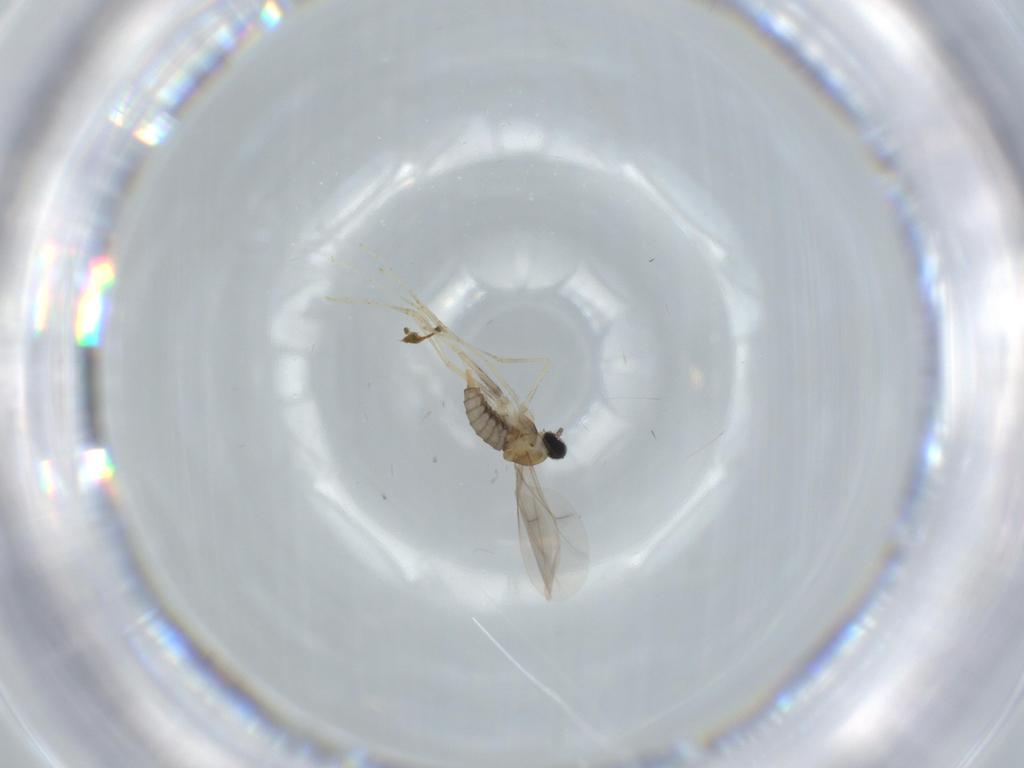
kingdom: Animalia
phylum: Arthropoda
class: Insecta
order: Diptera
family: Cecidomyiidae
